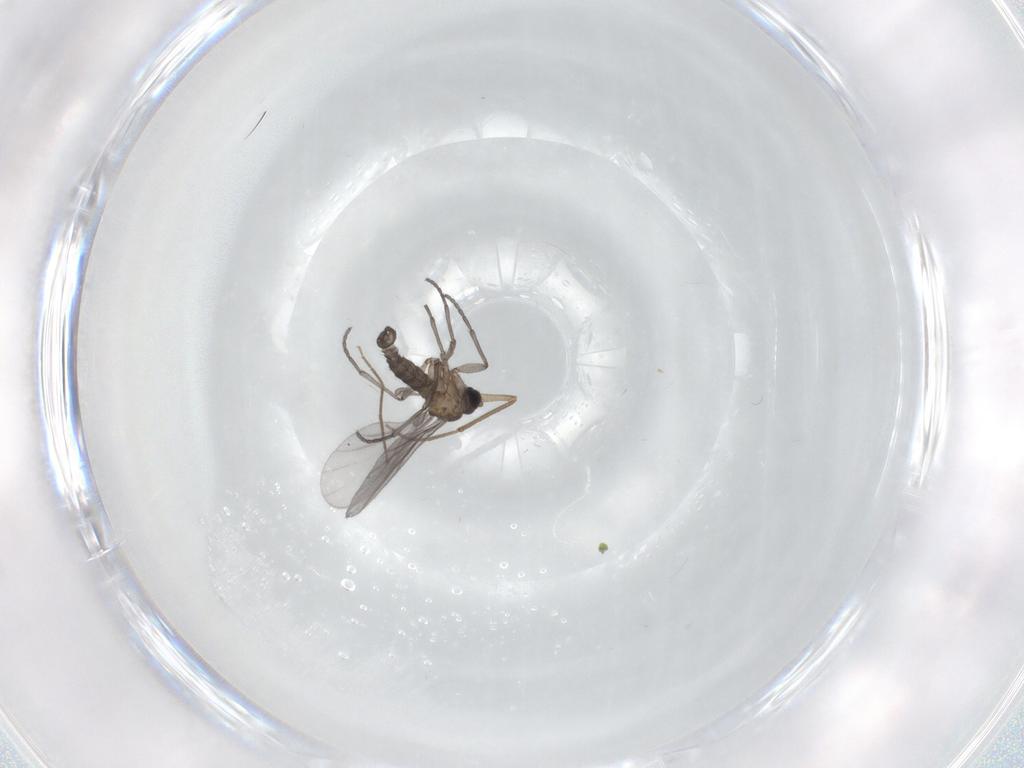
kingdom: Animalia
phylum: Arthropoda
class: Insecta
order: Diptera
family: Sciaridae
